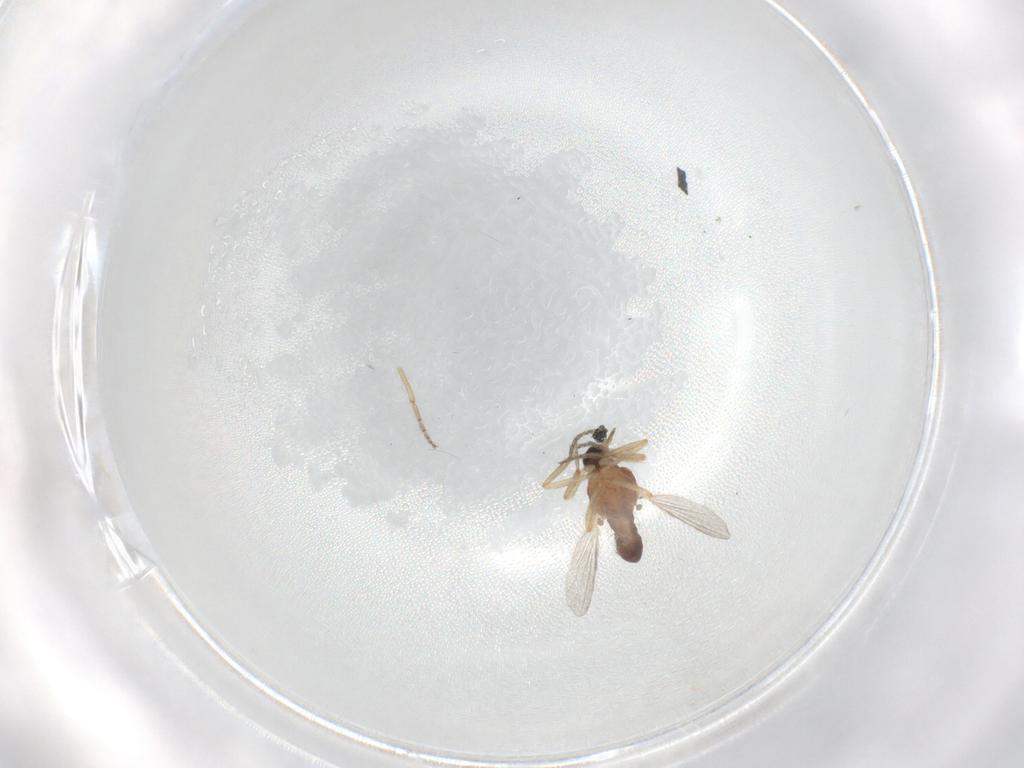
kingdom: Animalia
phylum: Arthropoda
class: Insecta
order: Diptera
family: Ceratopogonidae
